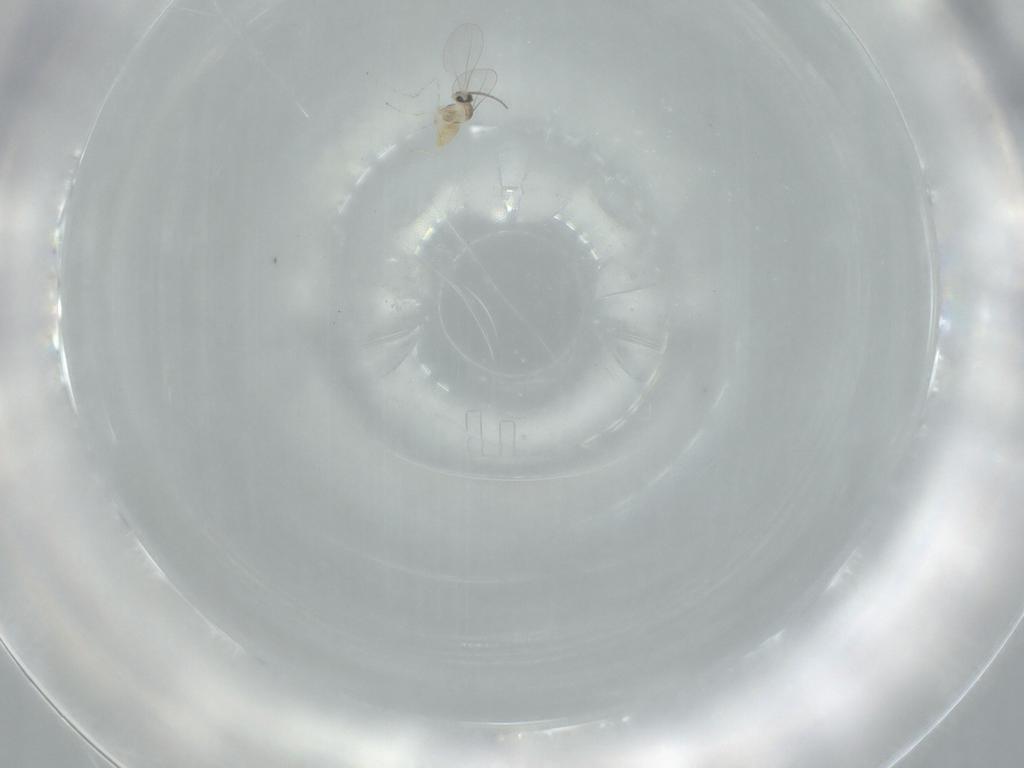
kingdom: Animalia
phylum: Arthropoda
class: Insecta
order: Diptera
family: Cecidomyiidae
